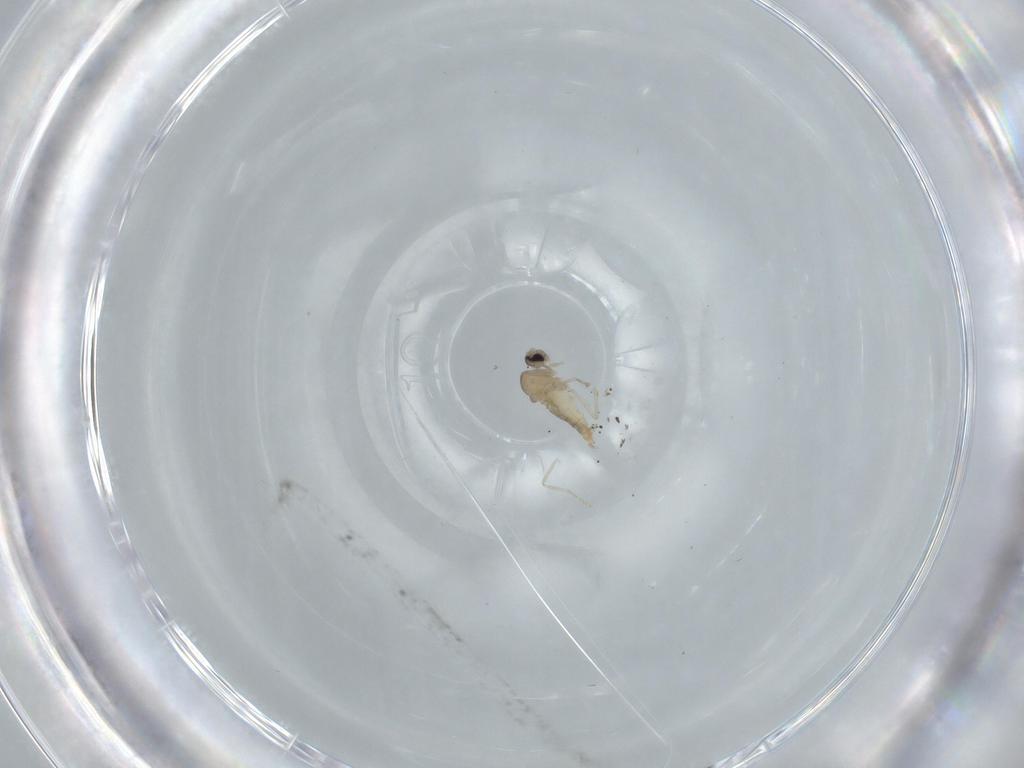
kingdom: Animalia
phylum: Arthropoda
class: Insecta
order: Diptera
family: Cecidomyiidae
